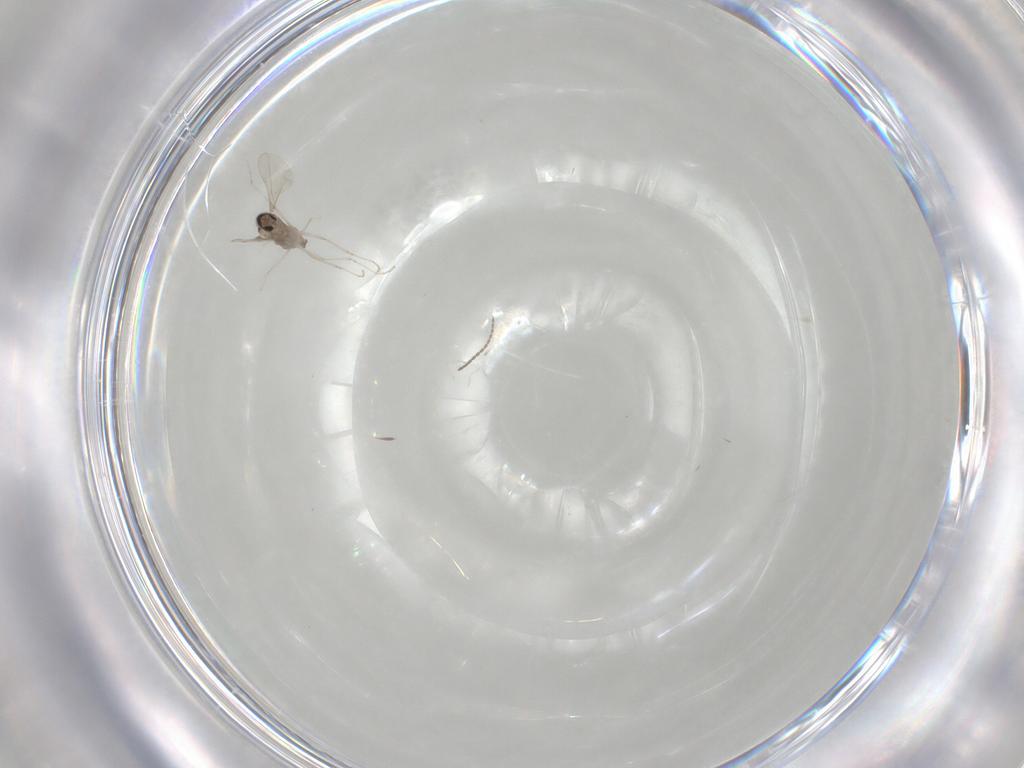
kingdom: Animalia
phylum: Arthropoda
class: Insecta
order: Diptera
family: Cecidomyiidae
